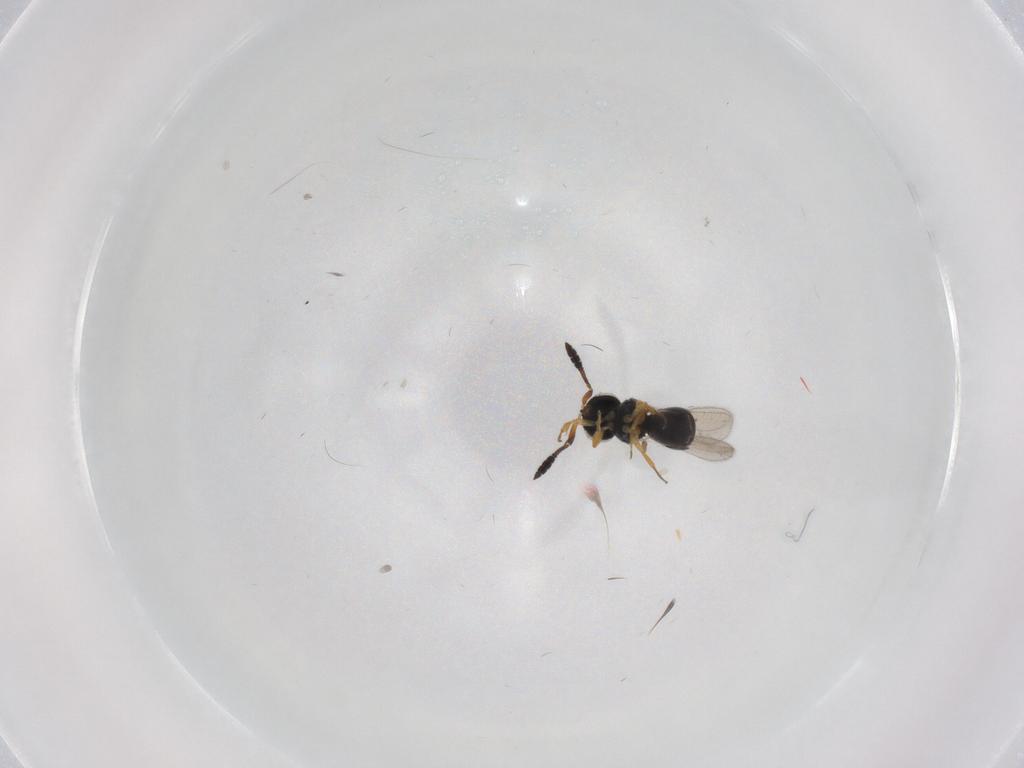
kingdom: Animalia
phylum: Arthropoda
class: Insecta
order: Hymenoptera
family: Scelionidae
